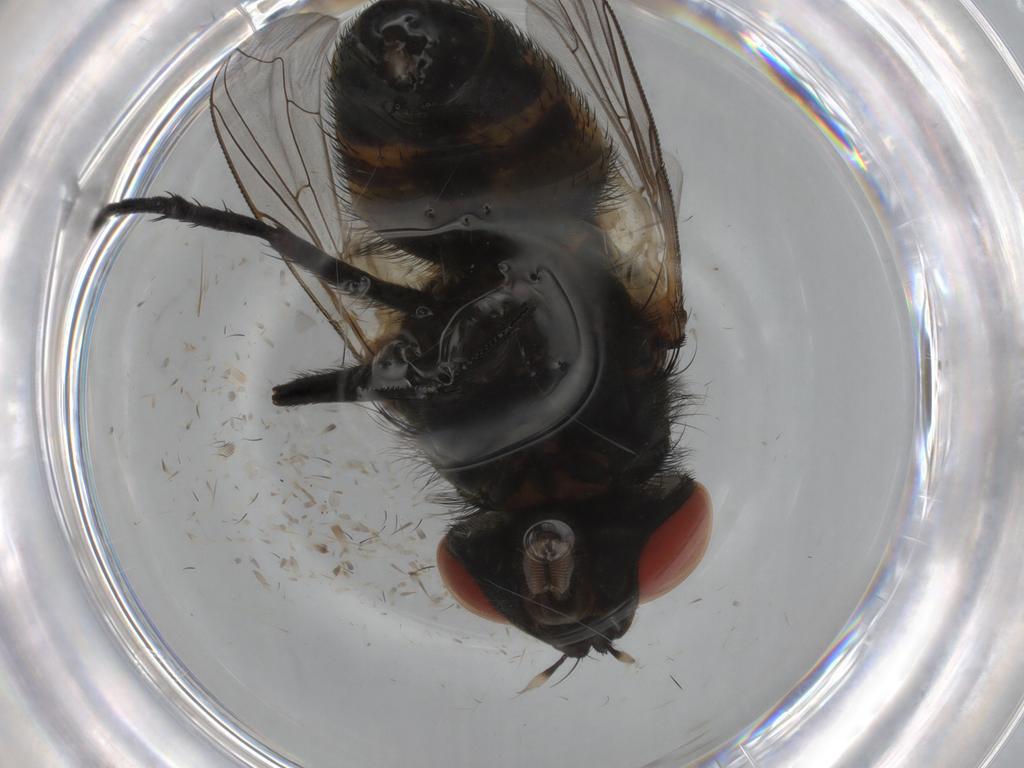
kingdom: Animalia
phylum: Arthropoda
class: Insecta
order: Diptera
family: Sarcophagidae
